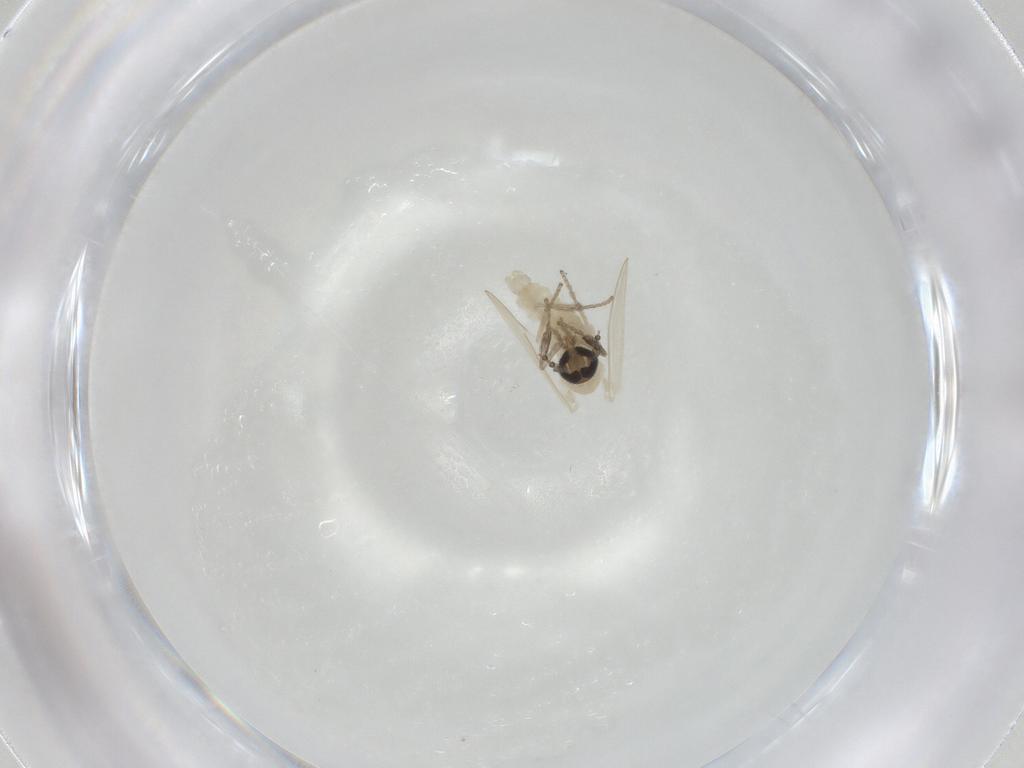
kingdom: Animalia
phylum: Arthropoda
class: Insecta
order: Diptera
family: Psychodidae
